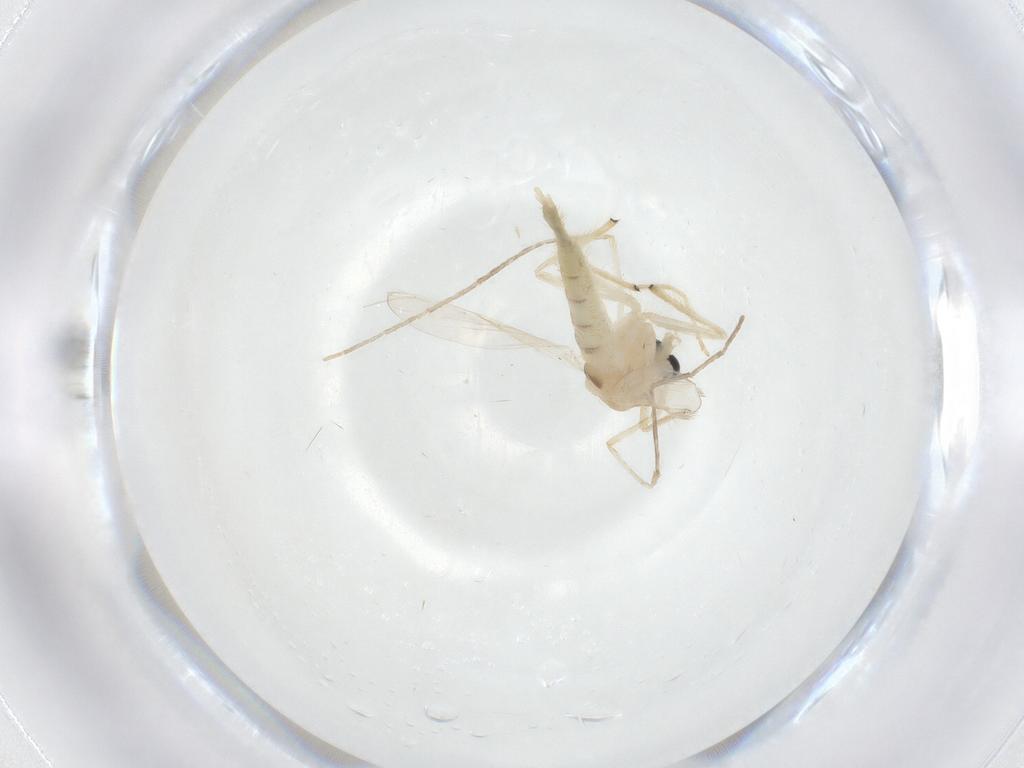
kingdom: Animalia
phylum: Arthropoda
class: Insecta
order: Diptera
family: Chironomidae
